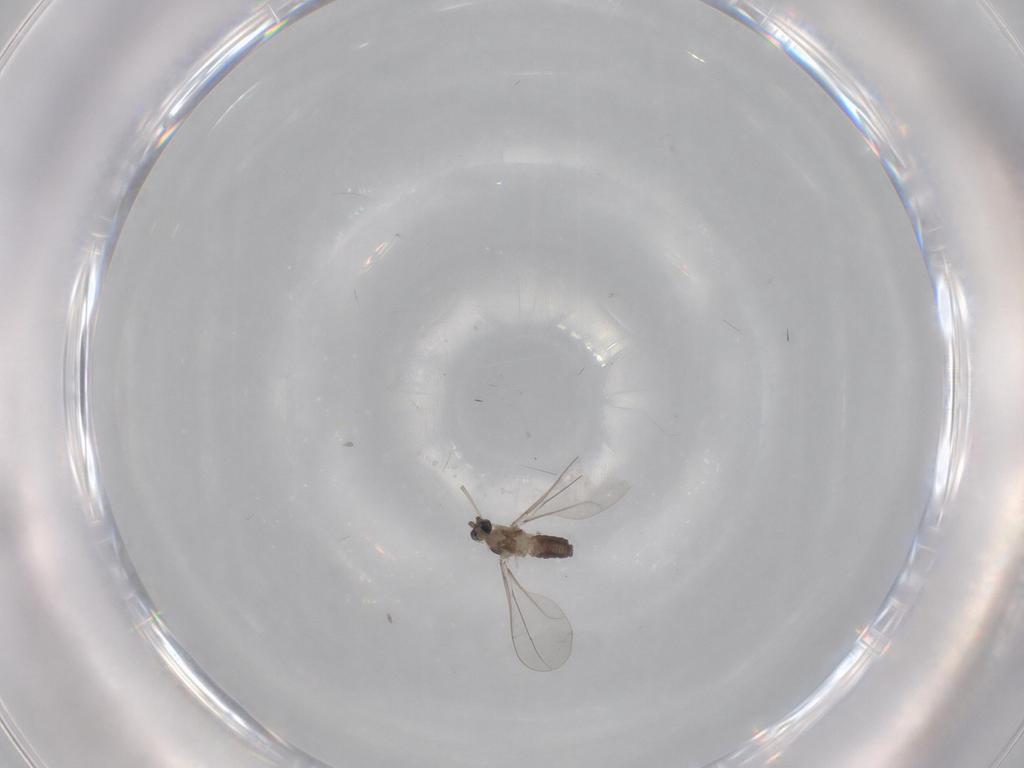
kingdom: Animalia
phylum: Arthropoda
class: Insecta
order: Diptera
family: Cecidomyiidae
